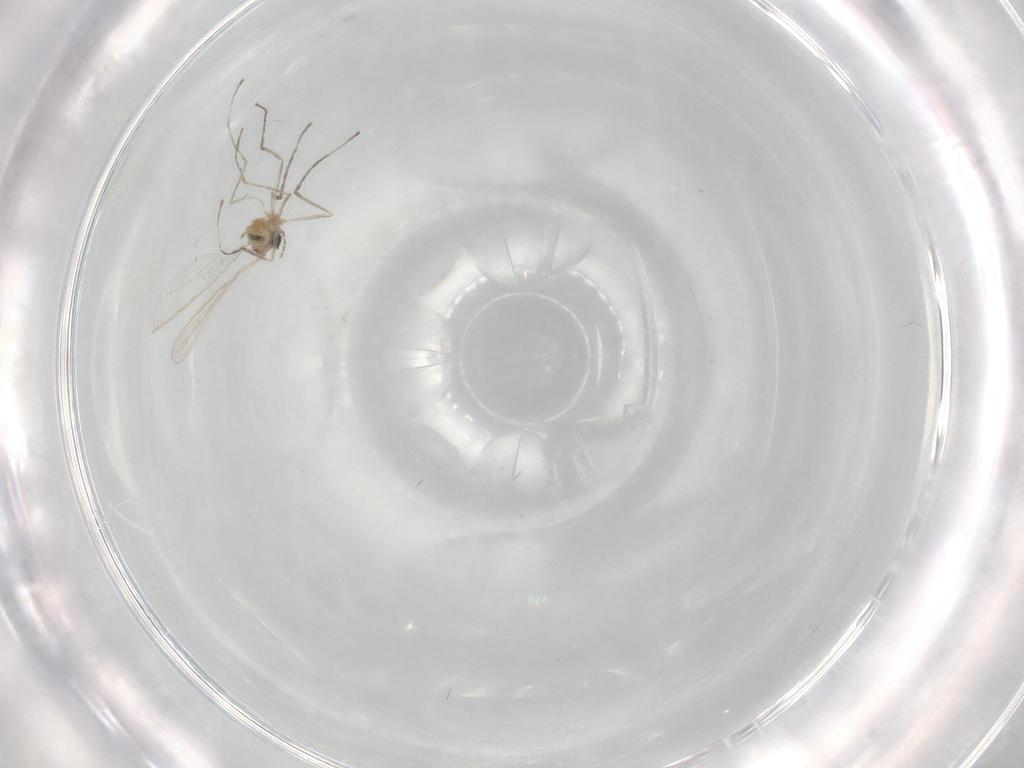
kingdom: Animalia
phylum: Arthropoda
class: Insecta
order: Diptera
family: Cecidomyiidae
